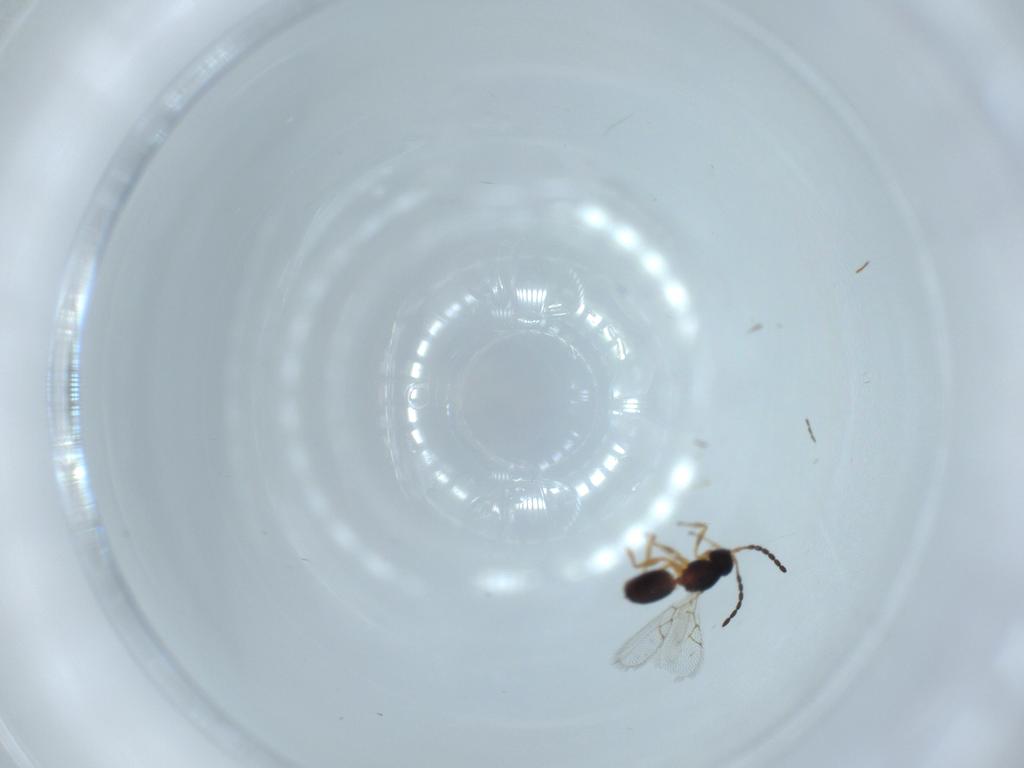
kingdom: Animalia
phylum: Arthropoda
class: Insecta
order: Hymenoptera
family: Figitidae
